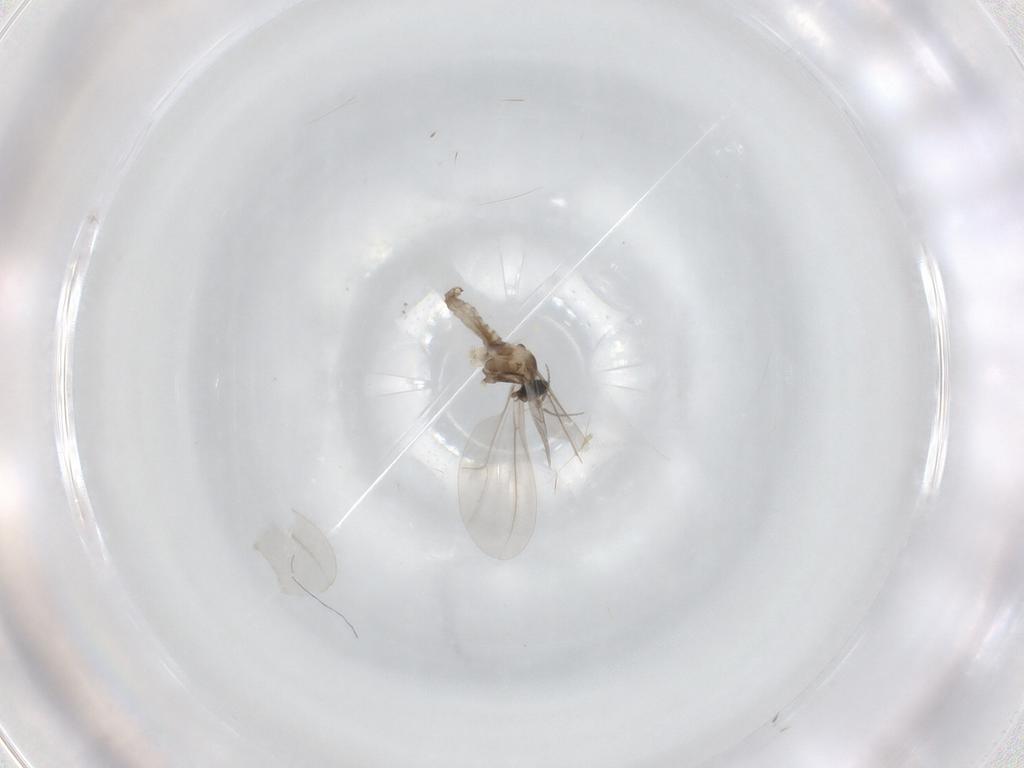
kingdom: Animalia
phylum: Arthropoda
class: Insecta
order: Diptera
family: Cecidomyiidae
